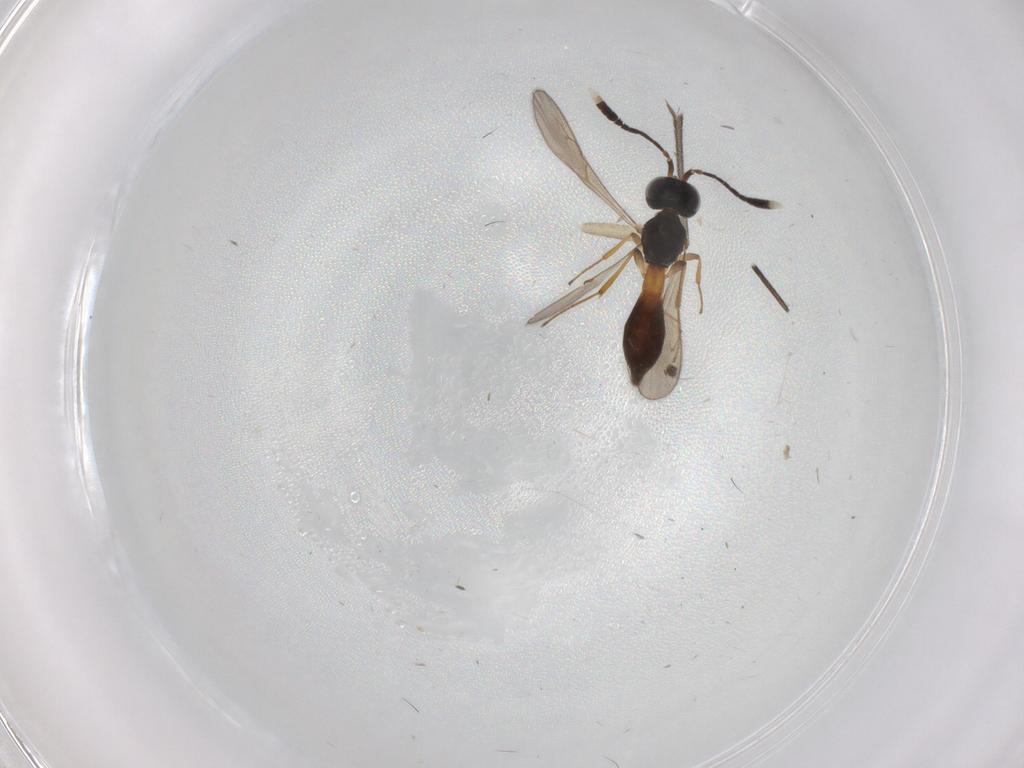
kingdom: Animalia
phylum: Arthropoda
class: Insecta
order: Hymenoptera
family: Scelionidae
